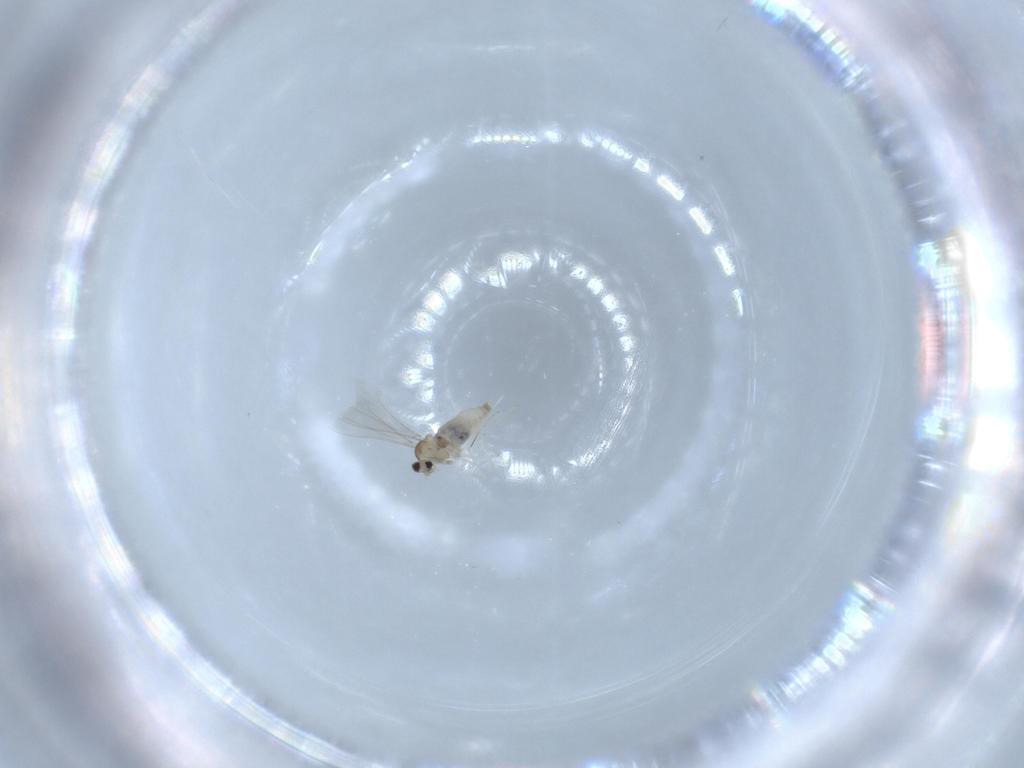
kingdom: Animalia
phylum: Arthropoda
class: Insecta
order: Diptera
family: Cecidomyiidae
